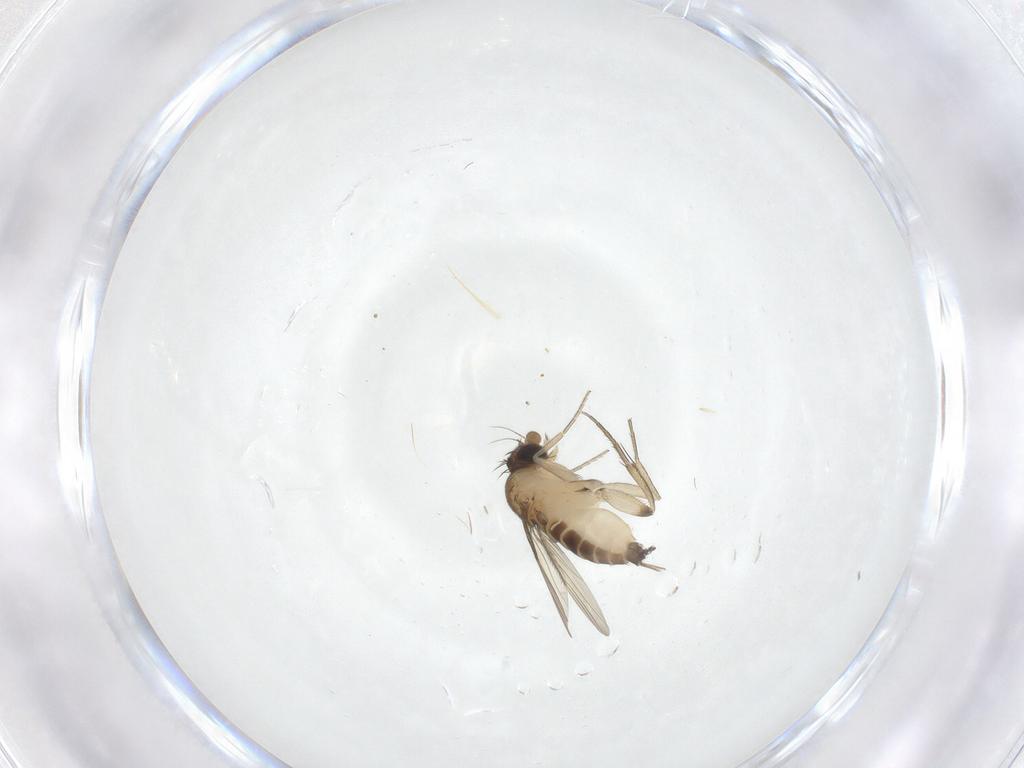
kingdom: Animalia
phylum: Arthropoda
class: Insecta
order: Diptera
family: Phoridae
